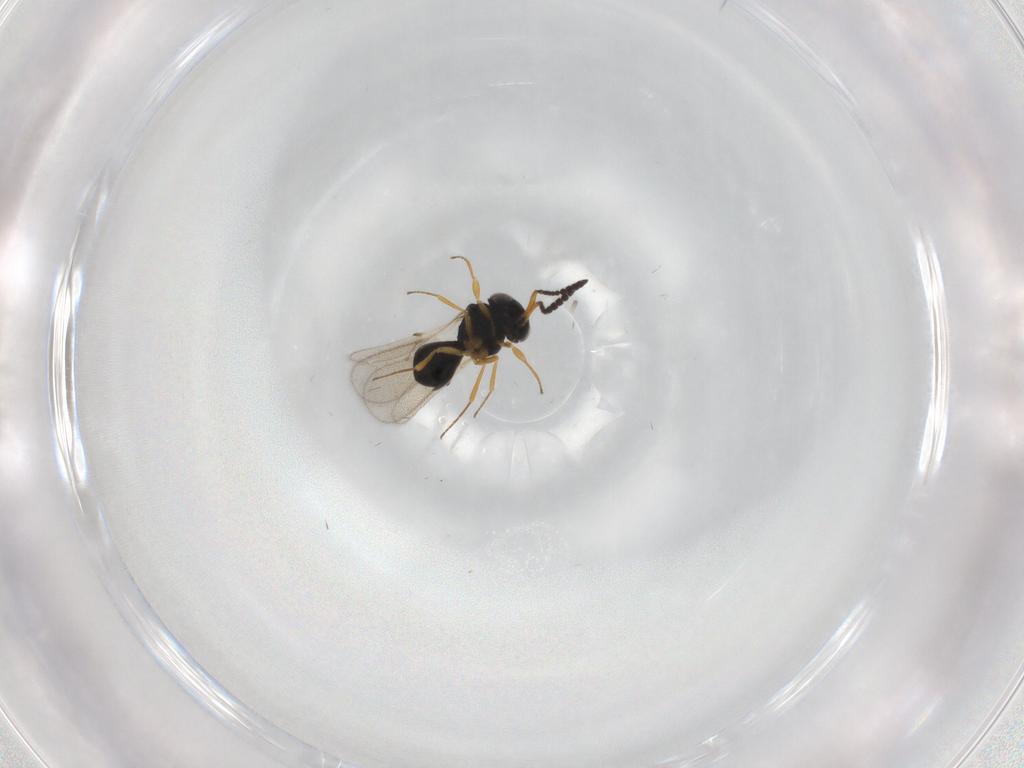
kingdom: Animalia
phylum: Arthropoda
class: Insecta
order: Hymenoptera
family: Scelionidae
